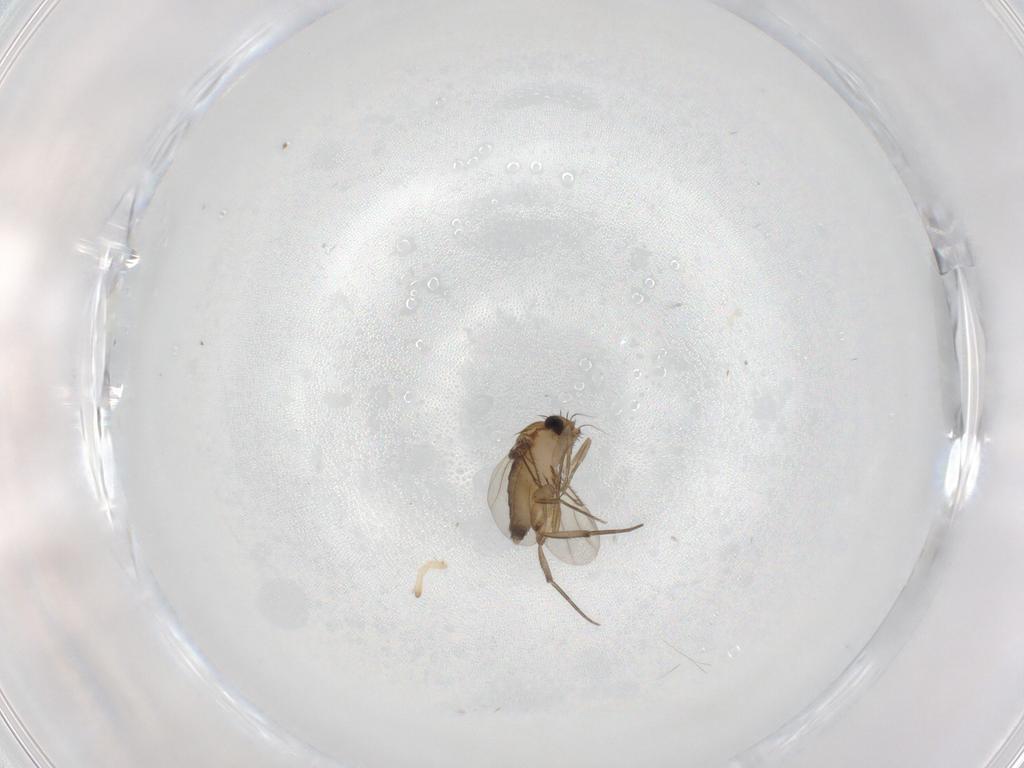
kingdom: Animalia
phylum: Arthropoda
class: Insecta
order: Diptera
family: Phoridae
